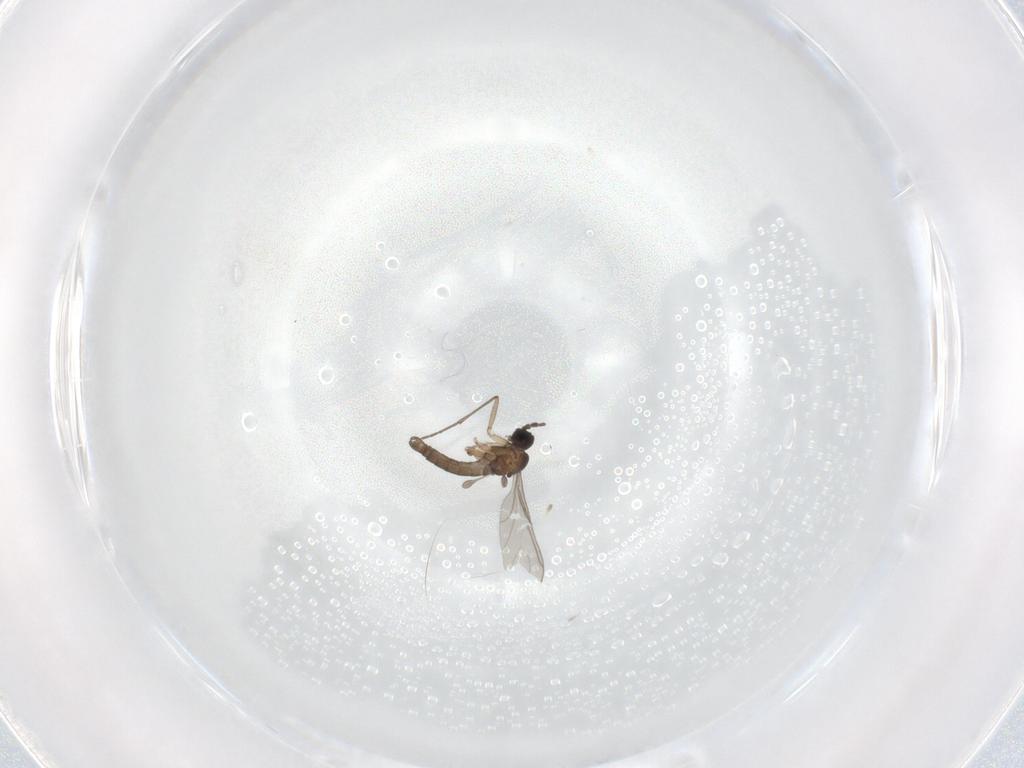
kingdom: Animalia
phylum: Arthropoda
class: Insecta
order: Diptera
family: Sciaridae
